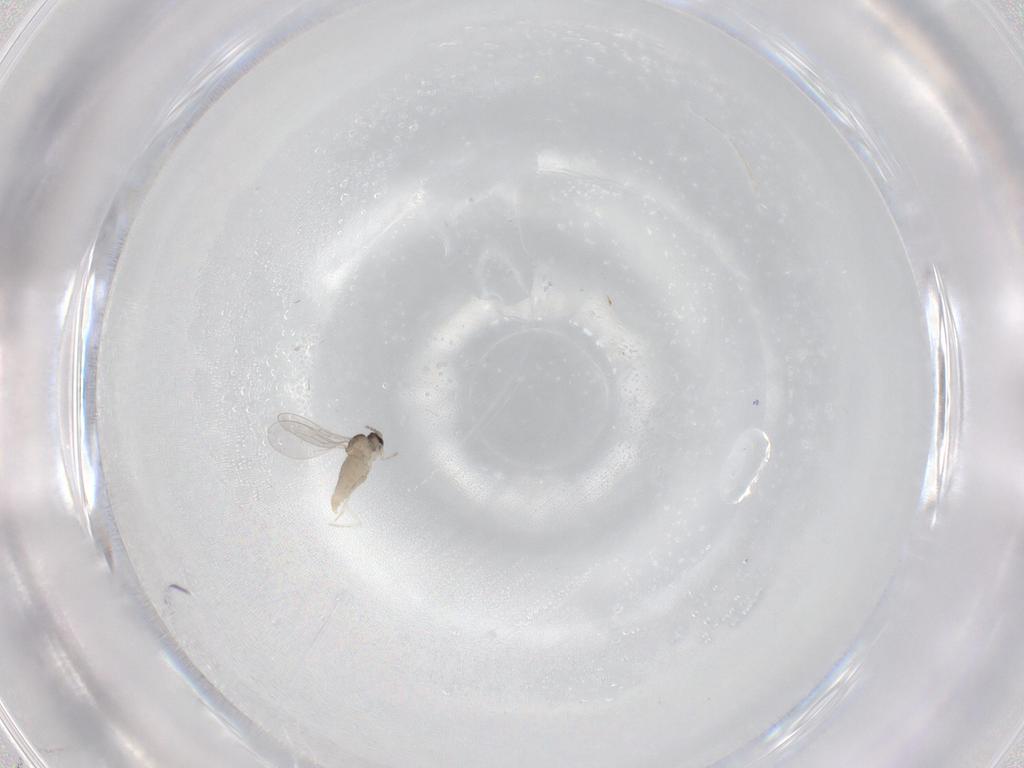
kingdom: Animalia
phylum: Arthropoda
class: Insecta
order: Diptera
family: Cecidomyiidae
